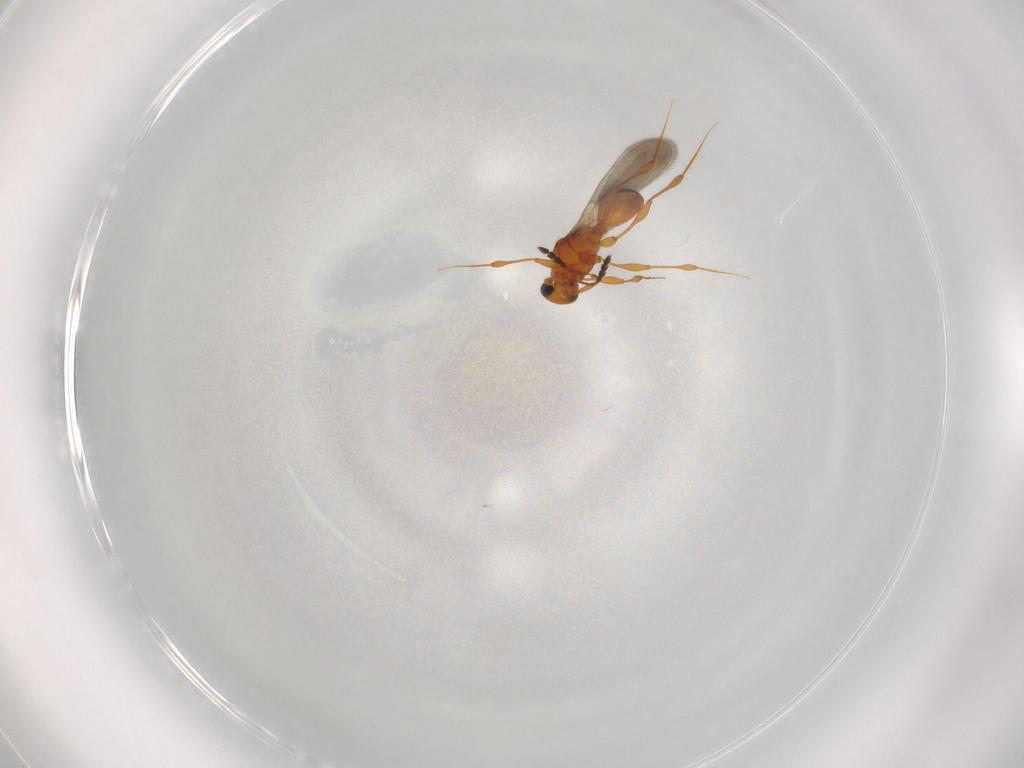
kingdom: Animalia
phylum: Arthropoda
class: Insecta
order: Hymenoptera
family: Platygastridae
